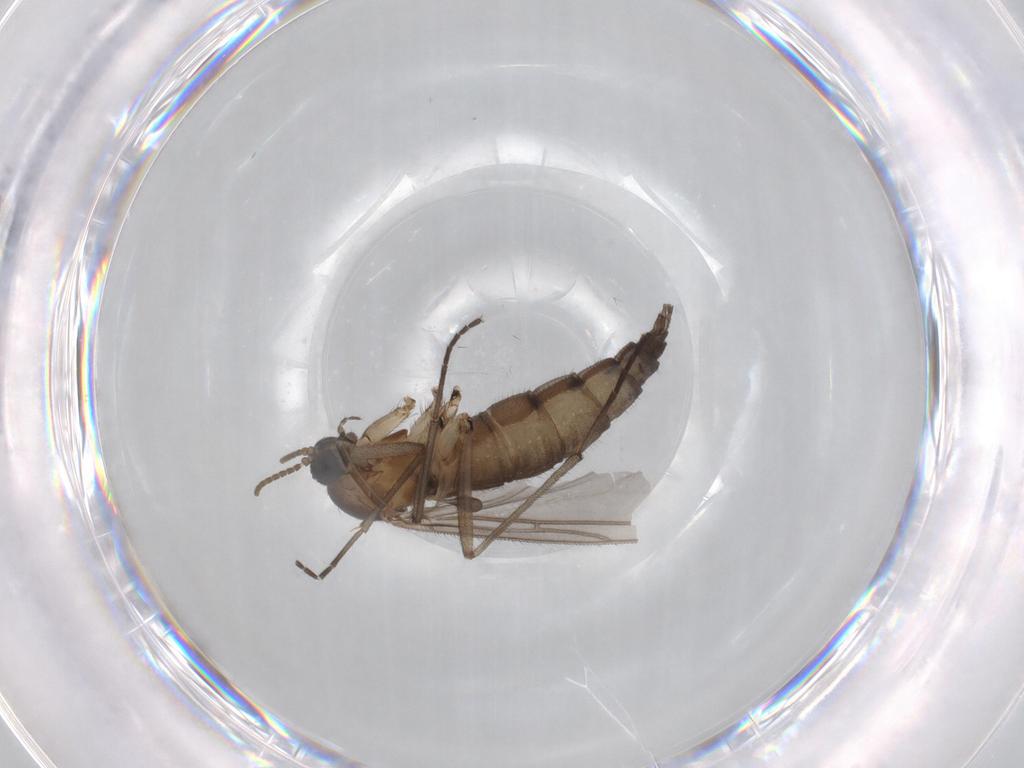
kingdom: Animalia
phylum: Arthropoda
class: Insecta
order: Diptera
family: Cecidomyiidae
